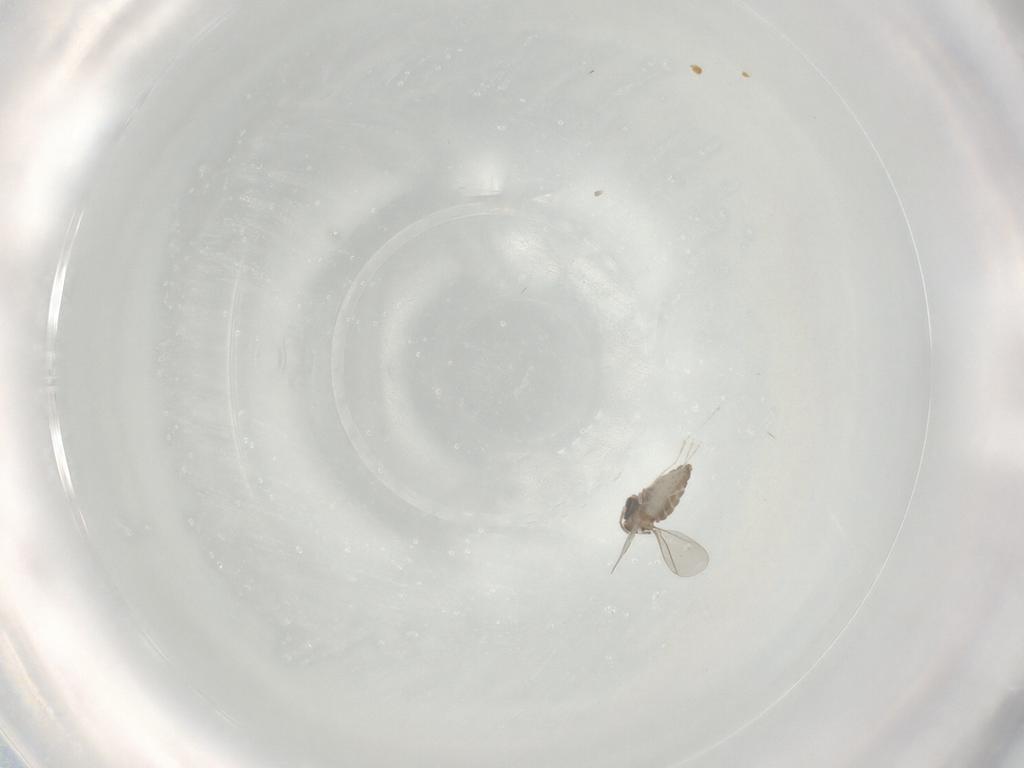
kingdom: Animalia
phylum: Arthropoda
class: Insecta
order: Diptera
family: Cecidomyiidae
